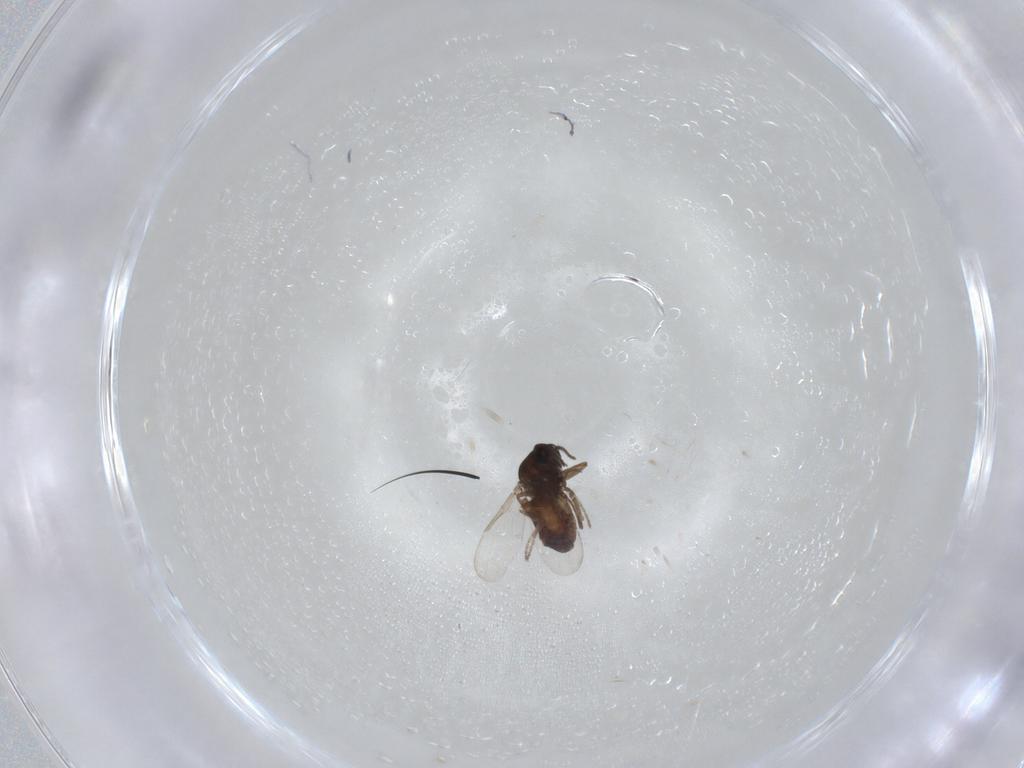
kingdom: Animalia
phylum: Arthropoda
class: Insecta
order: Diptera
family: Ceratopogonidae
